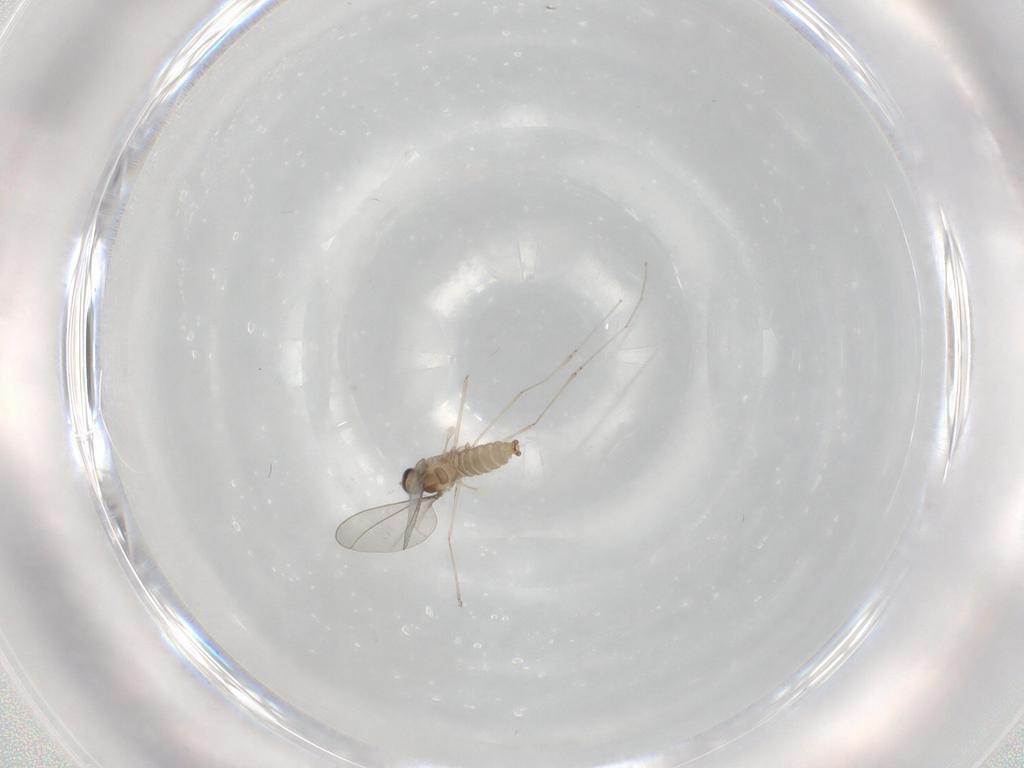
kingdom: Animalia
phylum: Arthropoda
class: Insecta
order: Diptera
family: Cecidomyiidae
